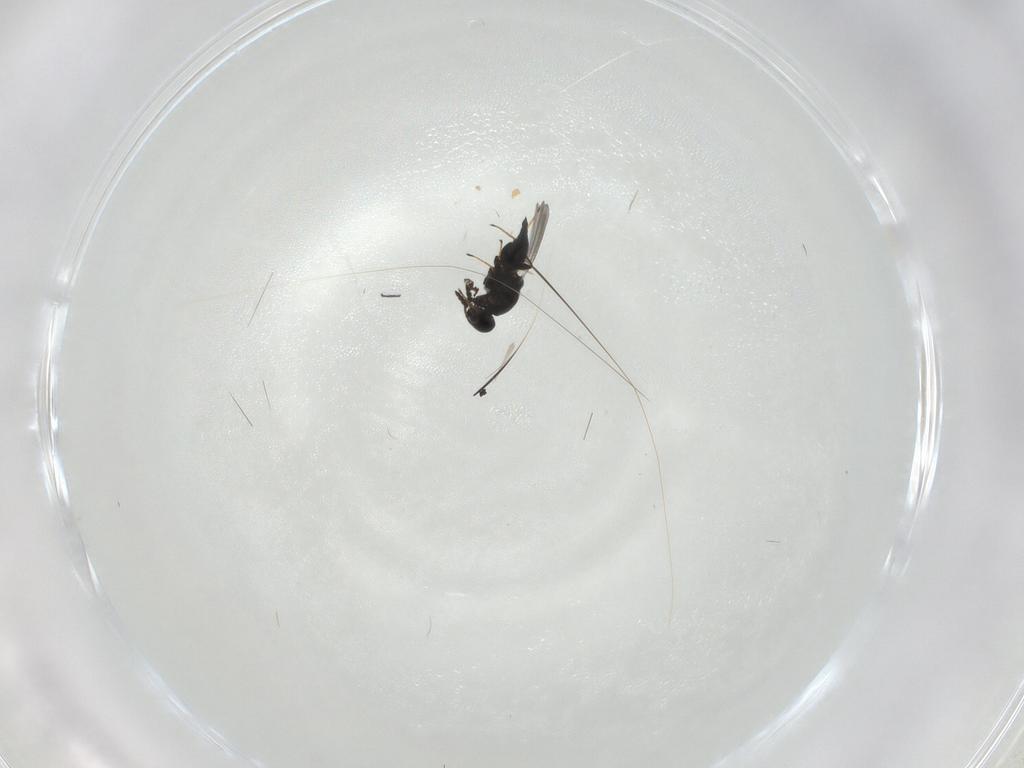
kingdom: Animalia
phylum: Arthropoda
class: Insecta
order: Hymenoptera
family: Platygastridae
